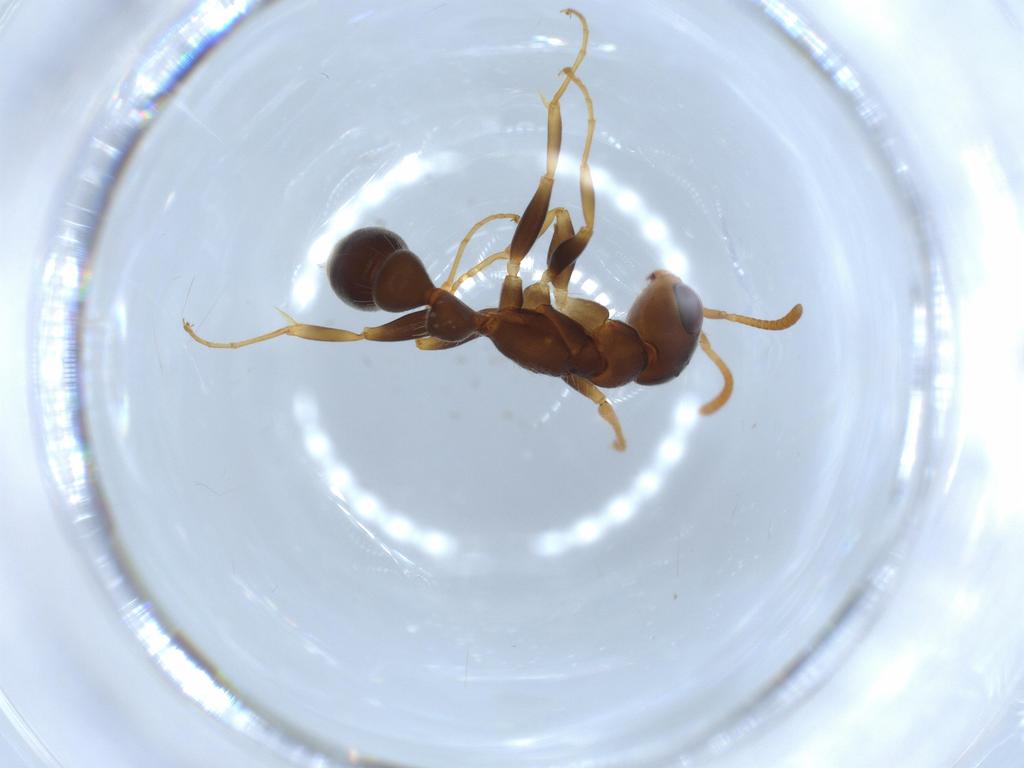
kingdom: Animalia
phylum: Arthropoda
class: Insecta
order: Hymenoptera
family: Formicidae
